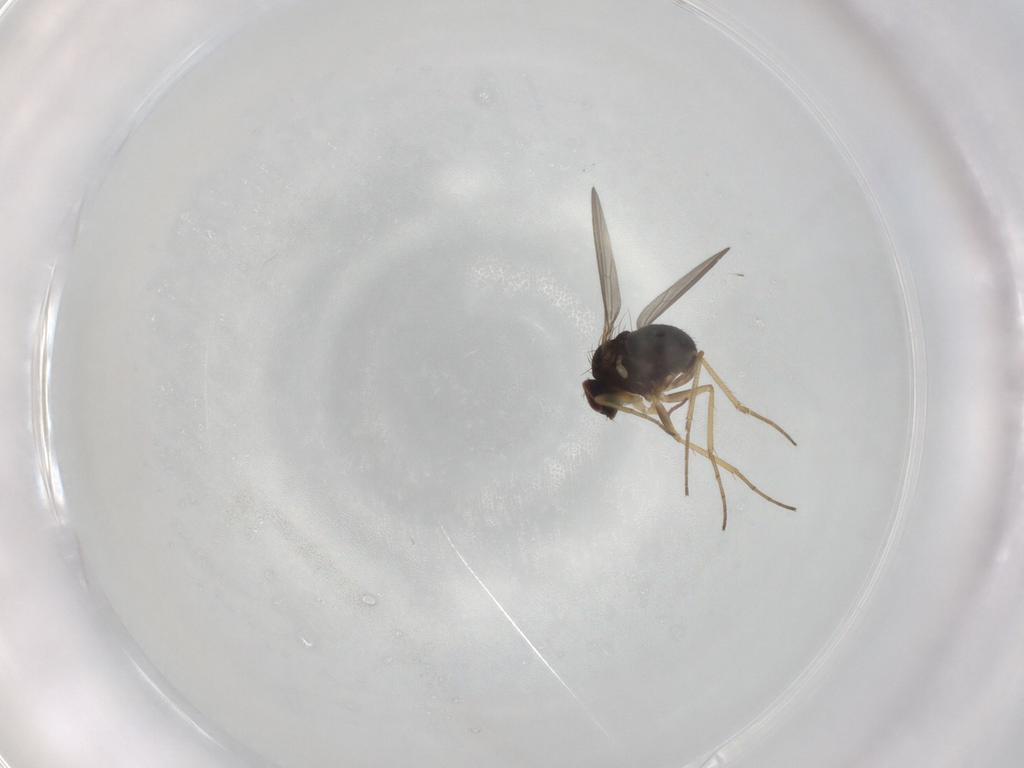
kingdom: Animalia
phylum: Arthropoda
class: Insecta
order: Diptera
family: Dolichopodidae
